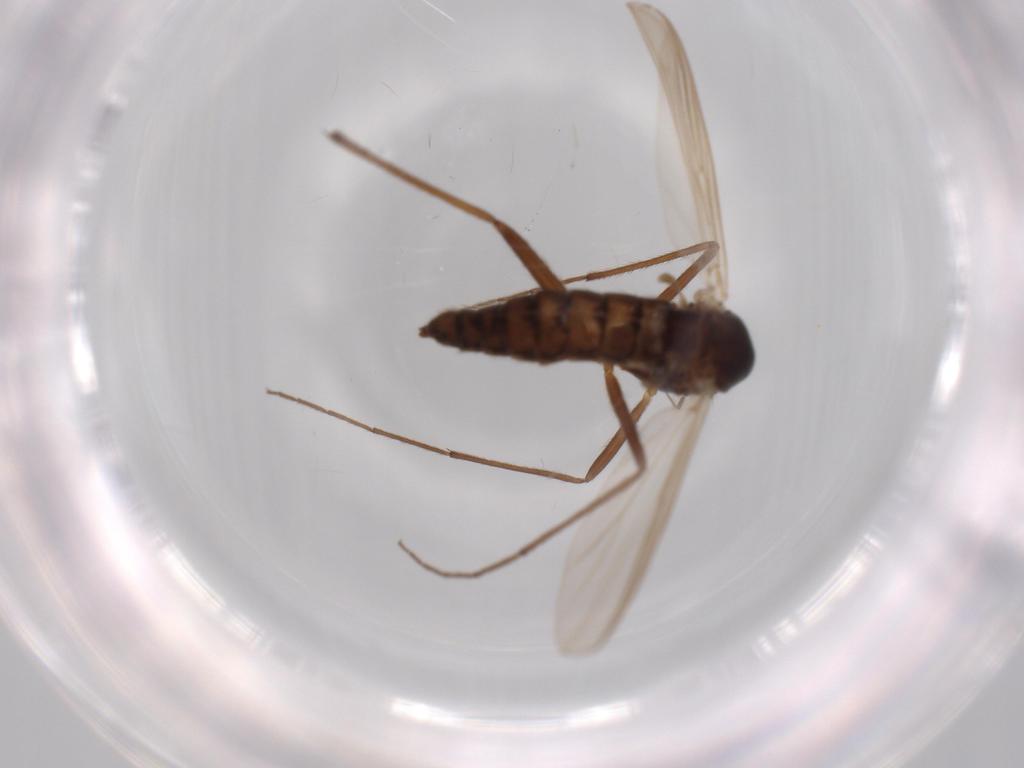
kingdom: Animalia
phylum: Arthropoda
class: Insecta
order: Diptera
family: Chironomidae
